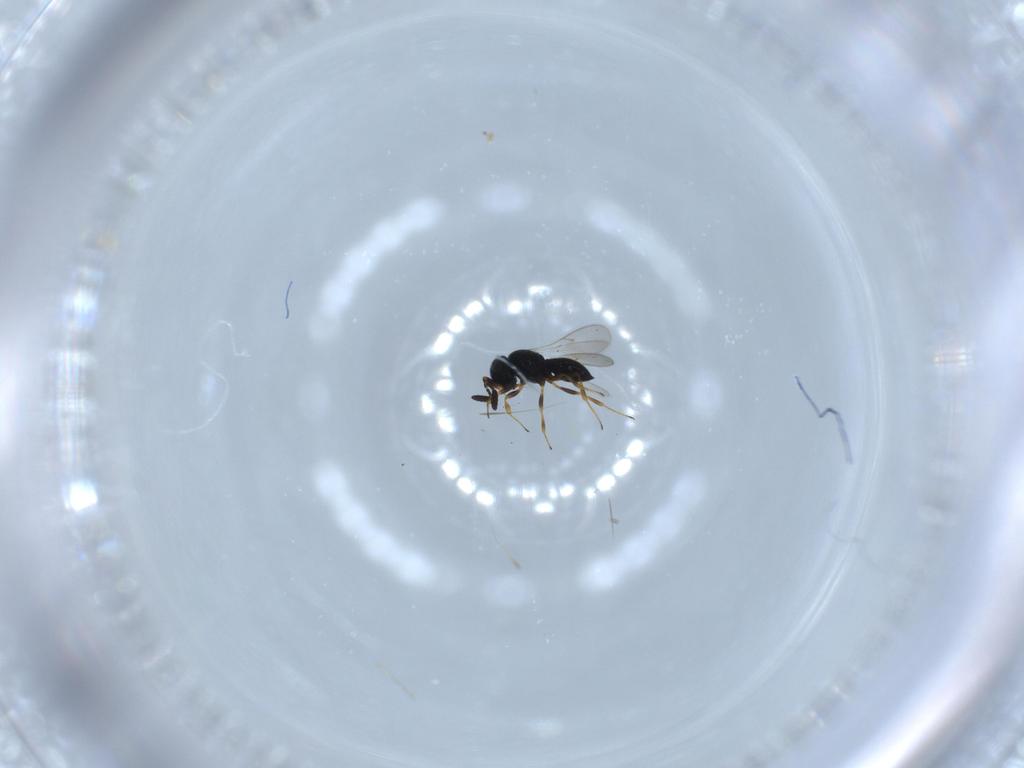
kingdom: Animalia
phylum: Arthropoda
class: Insecta
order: Hymenoptera
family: Scelionidae
